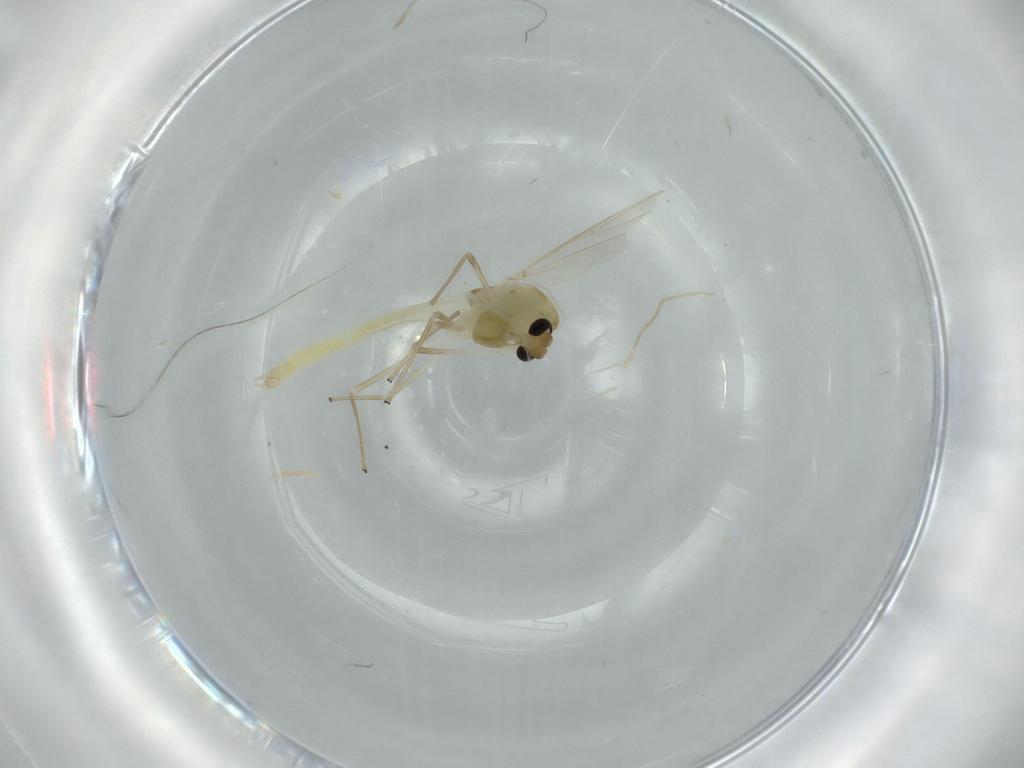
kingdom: Animalia
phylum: Arthropoda
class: Insecta
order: Diptera
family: Chironomidae
